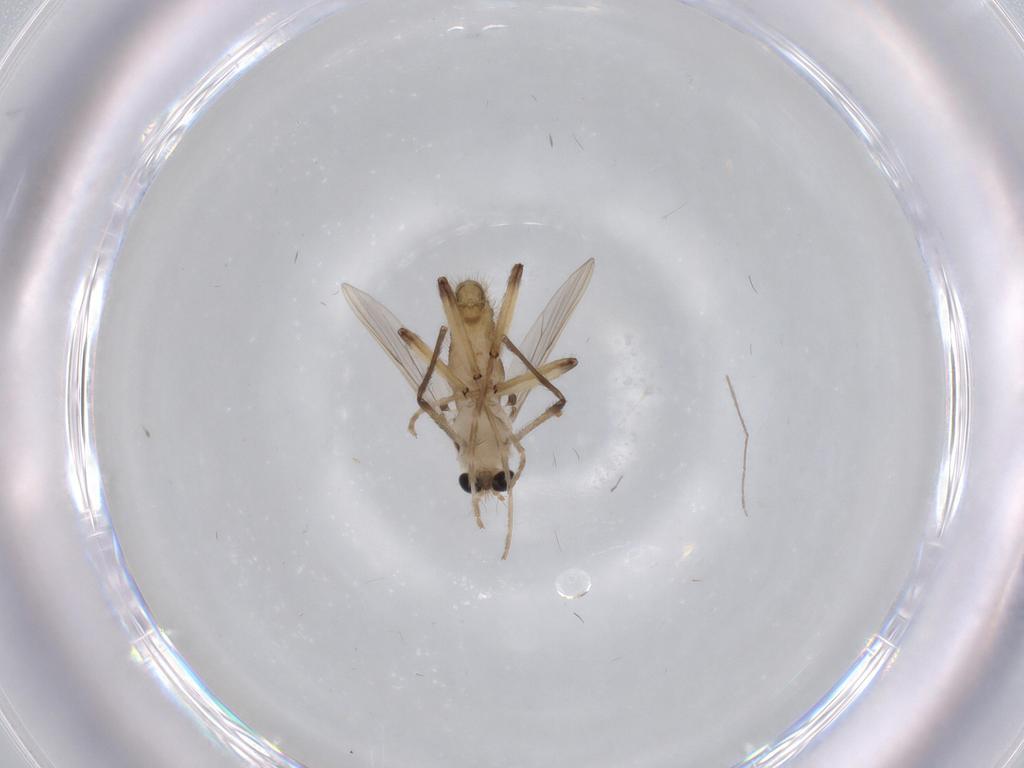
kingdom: Animalia
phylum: Arthropoda
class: Insecta
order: Diptera
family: Chironomidae
